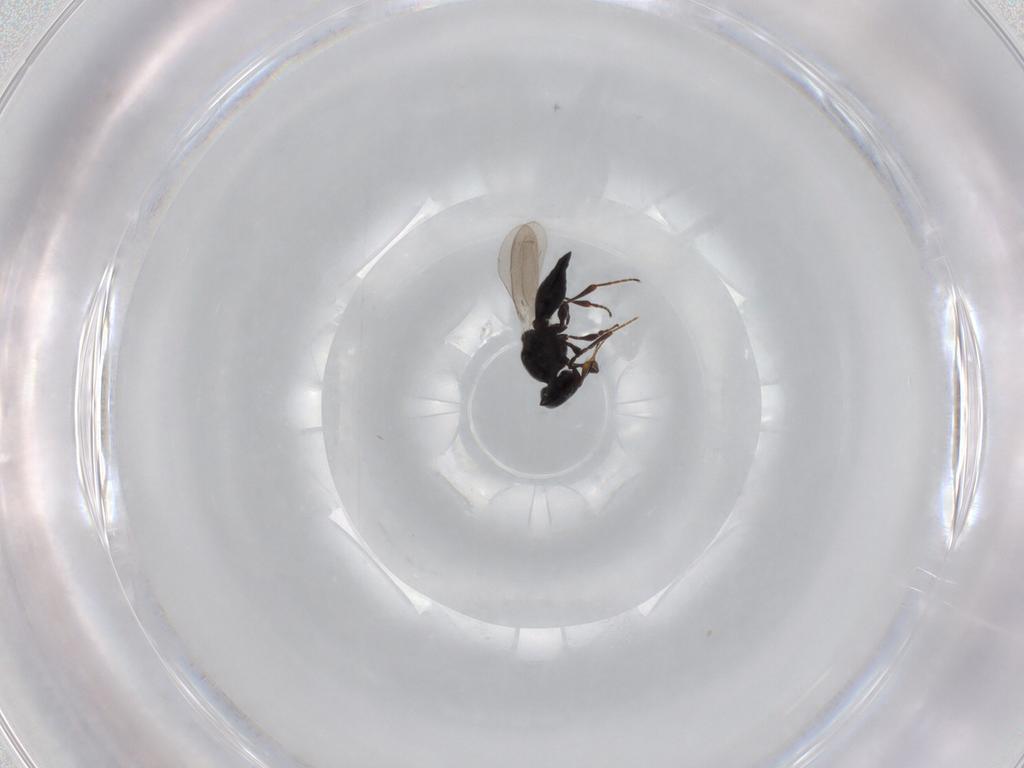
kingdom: Animalia
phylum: Arthropoda
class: Insecta
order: Hymenoptera
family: Platygastridae
